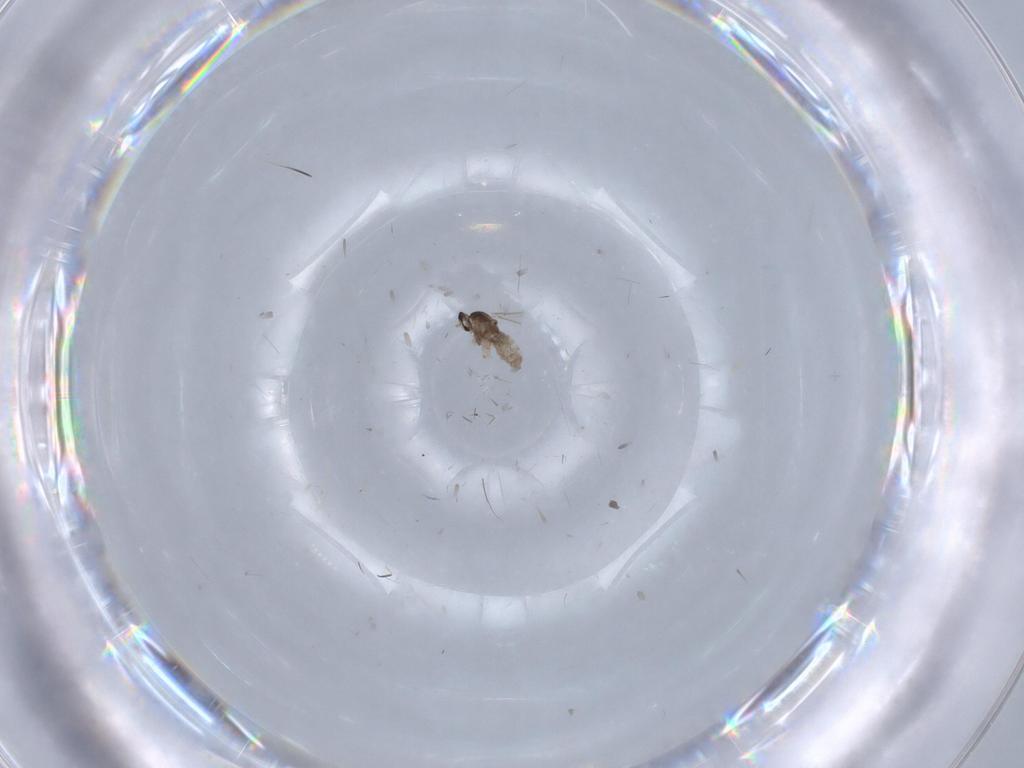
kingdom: Animalia
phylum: Arthropoda
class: Insecta
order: Diptera
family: Cecidomyiidae
